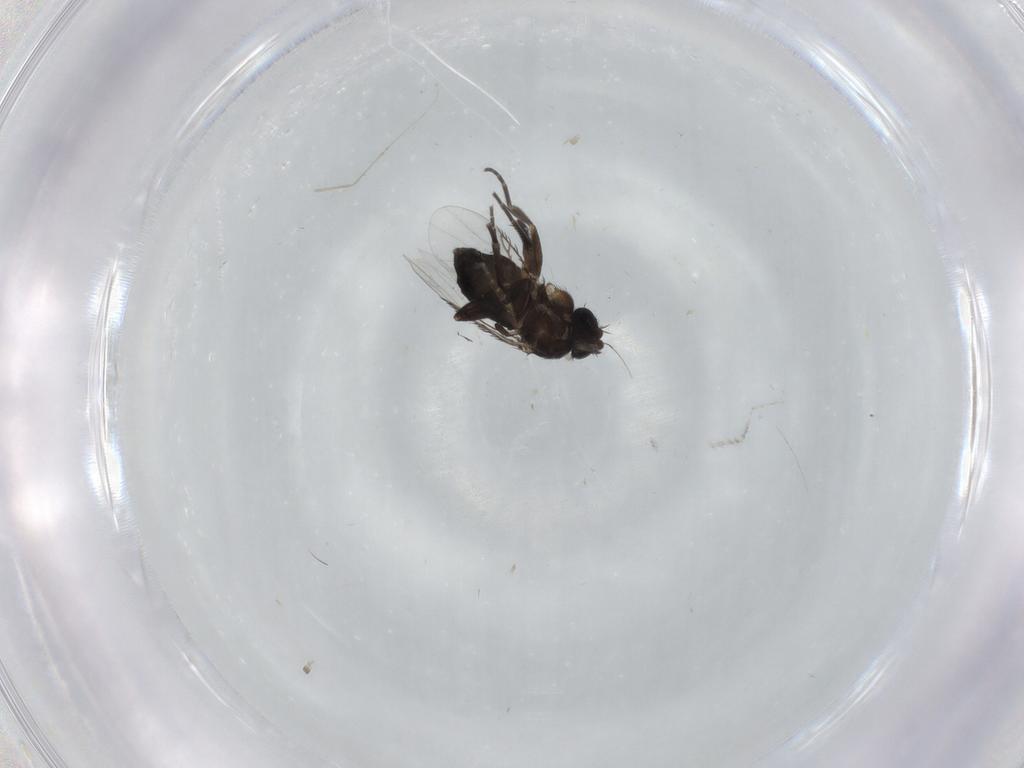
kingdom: Animalia
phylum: Arthropoda
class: Insecta
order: Diptera
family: Phoridae
